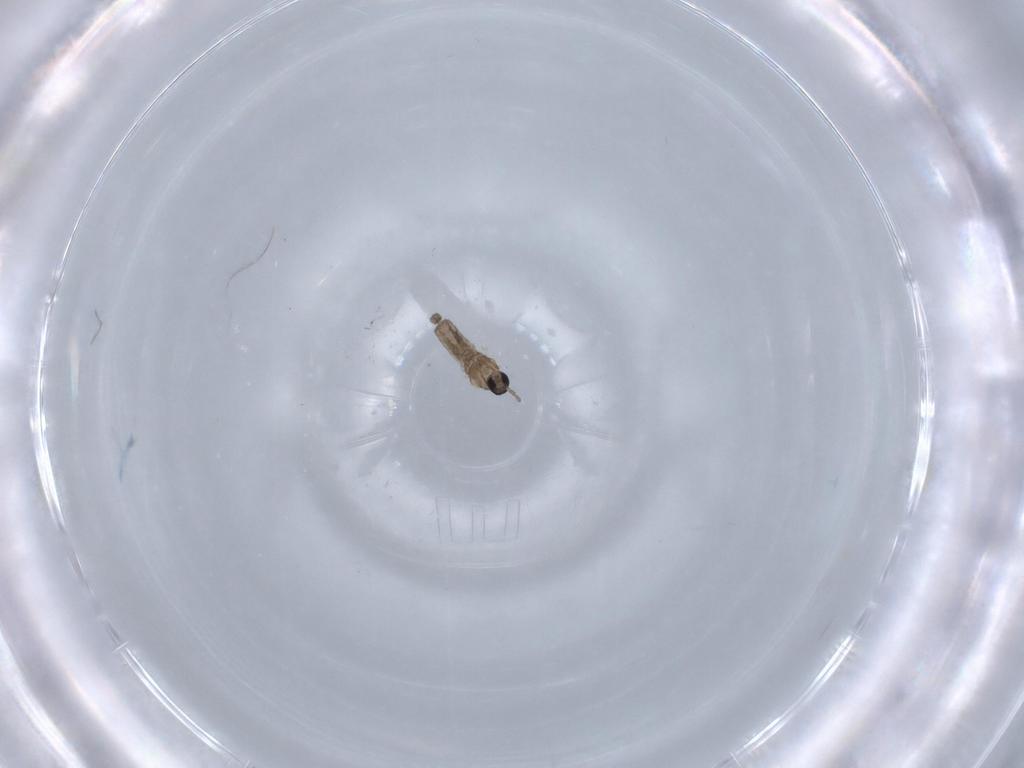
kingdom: Animalia
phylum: Arthropoda
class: Insecta
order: Diptera
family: Cecidomyiidae
